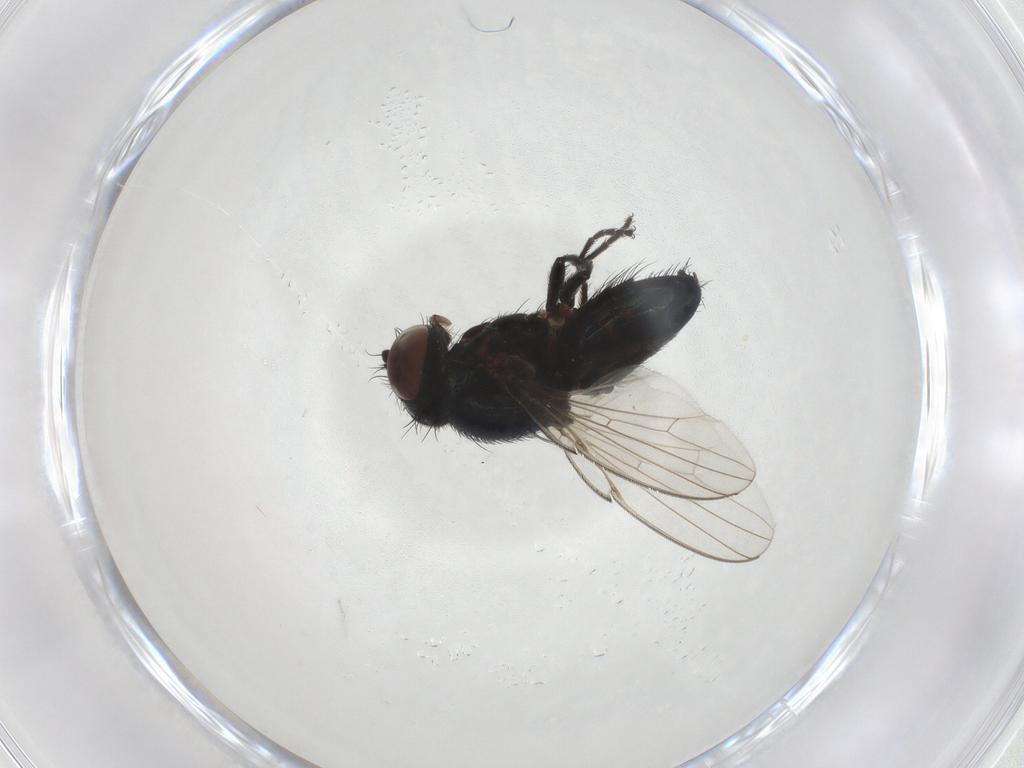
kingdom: Animalia
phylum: Arthropoda
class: Insecta
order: Diptera
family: Chloropidae
